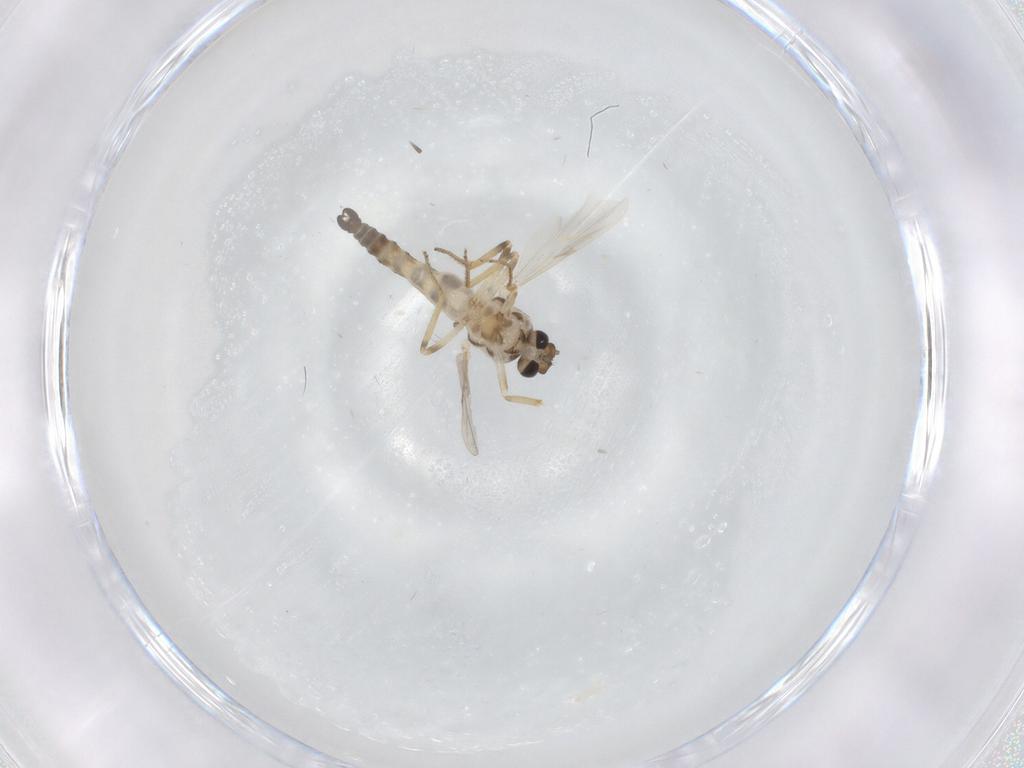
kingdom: Animalia
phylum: Arthropoda
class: Insecta
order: Diptera
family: Ceratopogonidae
